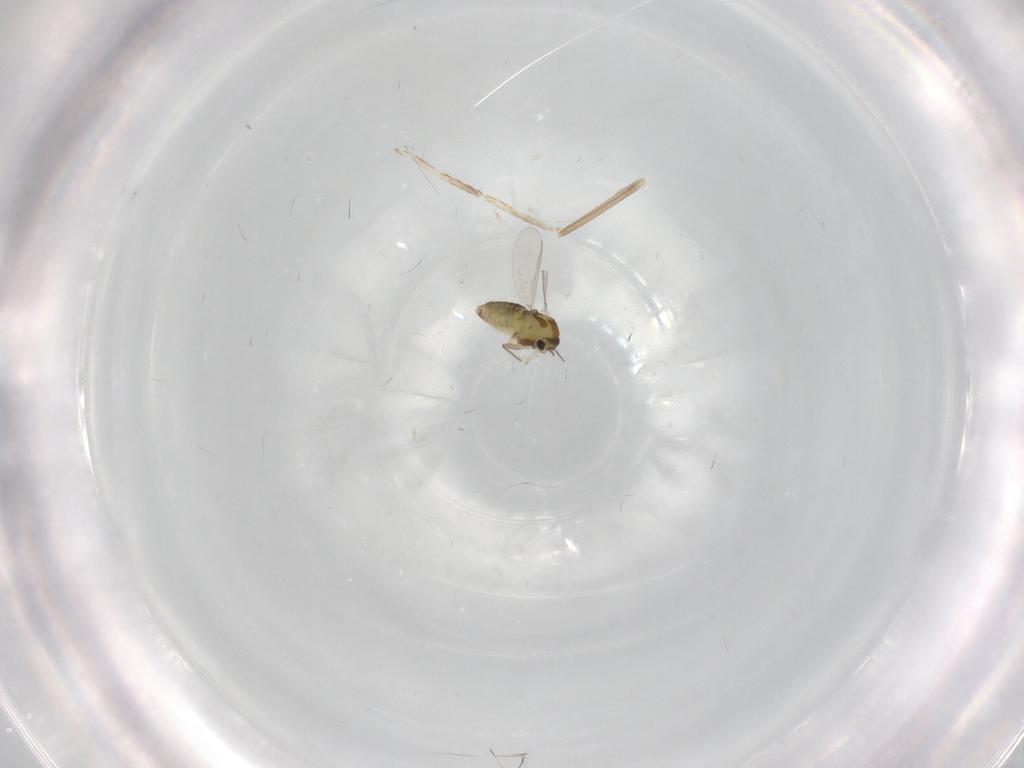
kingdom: Animalia
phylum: Arthropoda
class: Insecta
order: Diptera
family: Chironomidae
